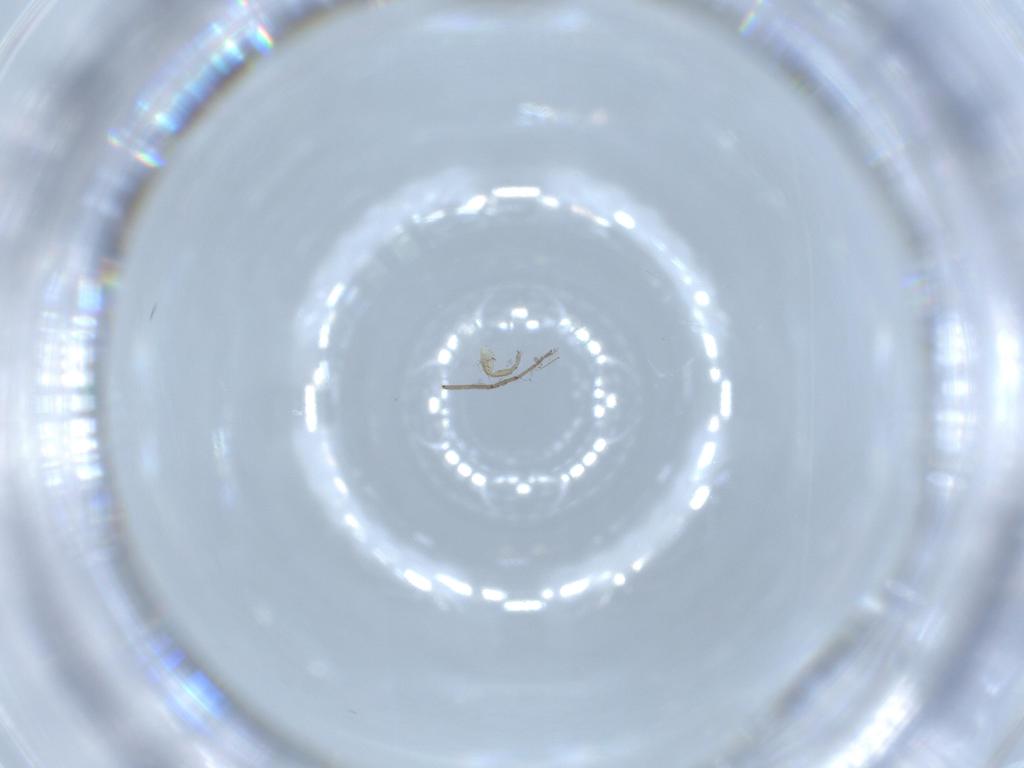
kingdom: Animalia
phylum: Arthropoda
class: Insecta
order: Diptera
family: Phoridae
